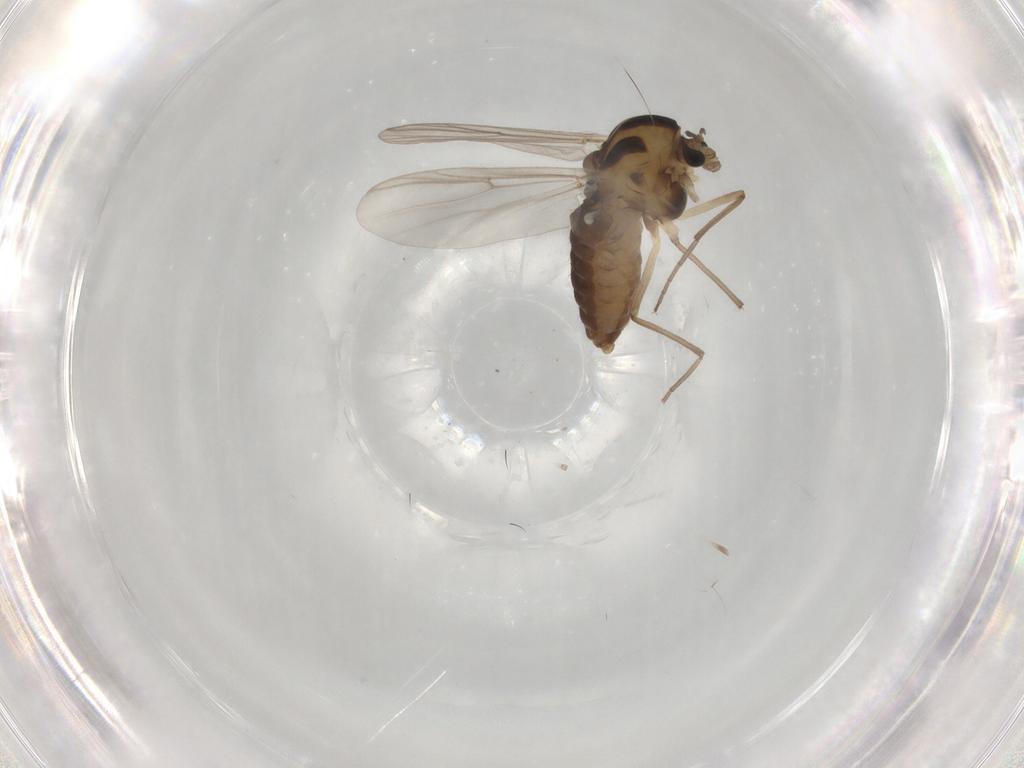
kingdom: Animalia
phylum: Arthropoda
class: Insecta
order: Diptera
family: Chironomidae
